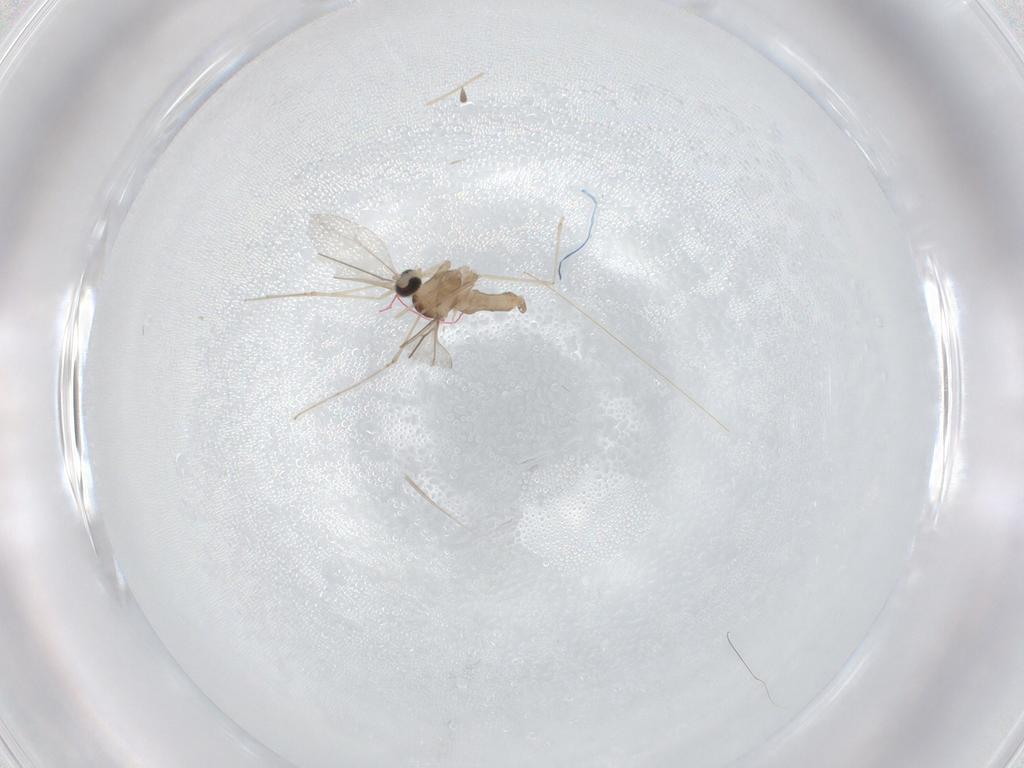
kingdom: Animalia
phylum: Arthropoda
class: Insecta
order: Diptera
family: Cecidomyiidae
